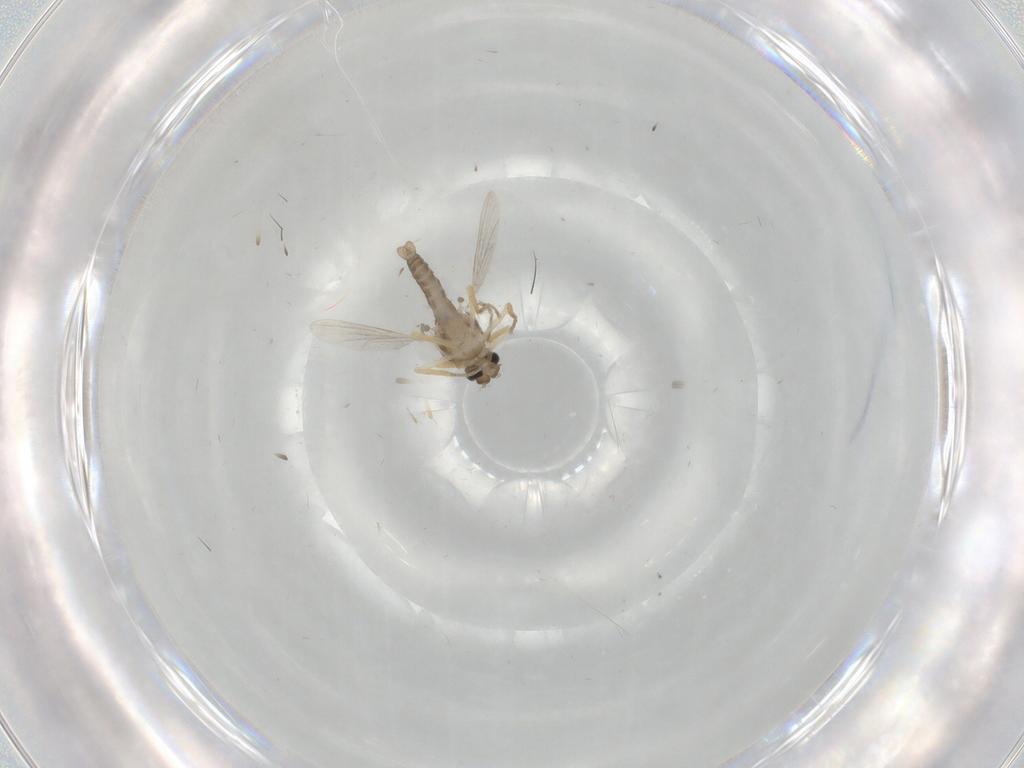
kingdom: Animalia
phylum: Arthropoda
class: Insecta
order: Diptera
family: Ceratopogonidae
